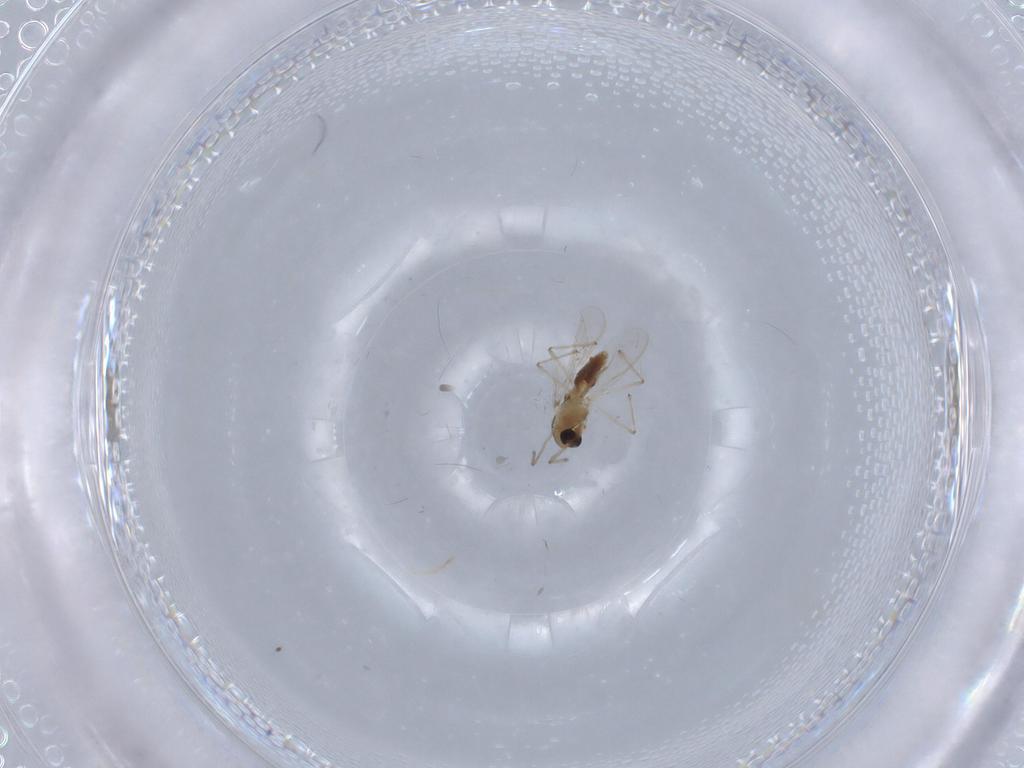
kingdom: Animalia
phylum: Arthropoda
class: Insecta
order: Diptera
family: Chironomidae
